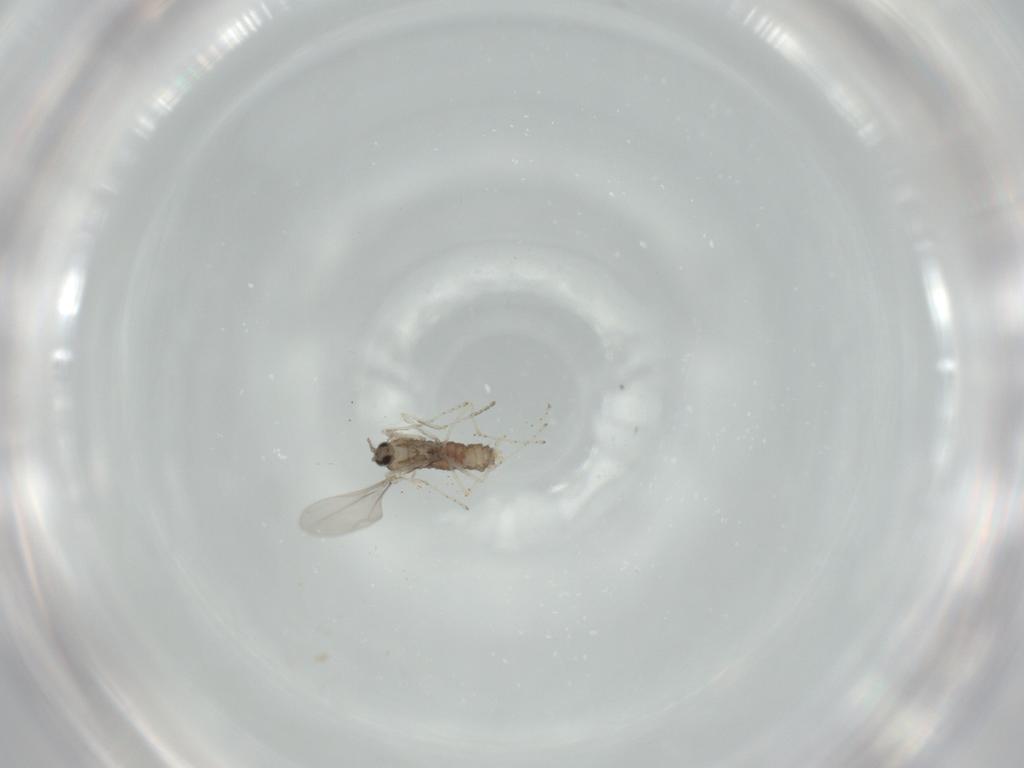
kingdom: Animalia
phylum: Arthropoda
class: Insecta
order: Diptera
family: Cecidomyiidae
